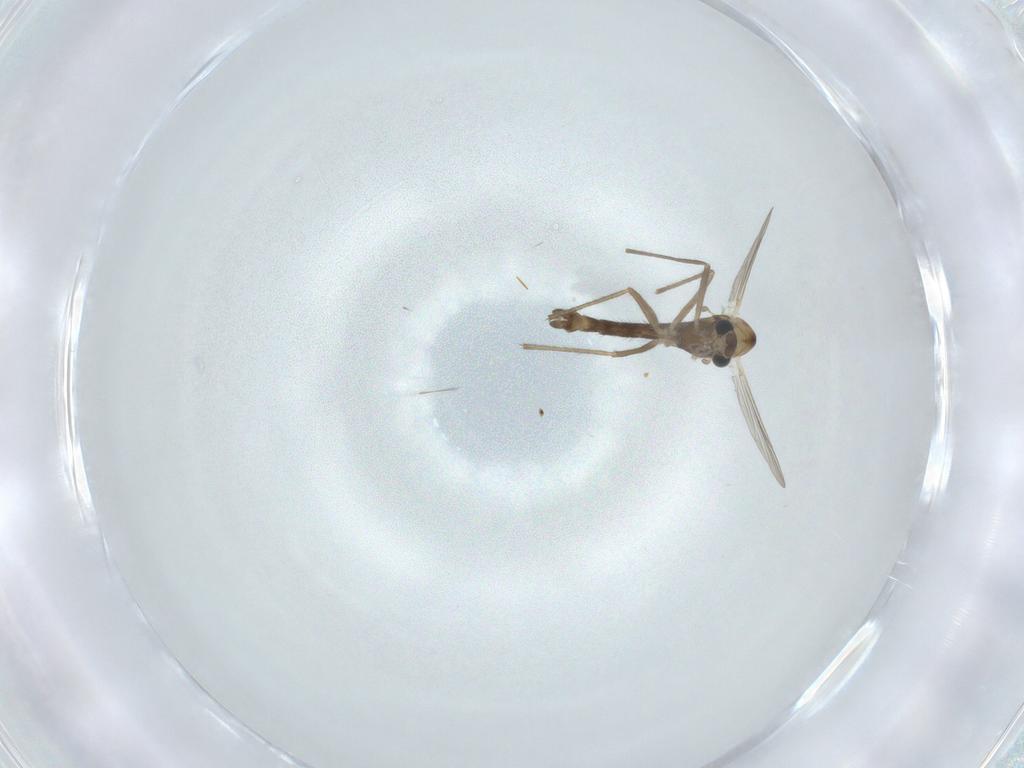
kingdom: Animalia
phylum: Arthropoda
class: Insecta
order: Diptera
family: Chironomidae
